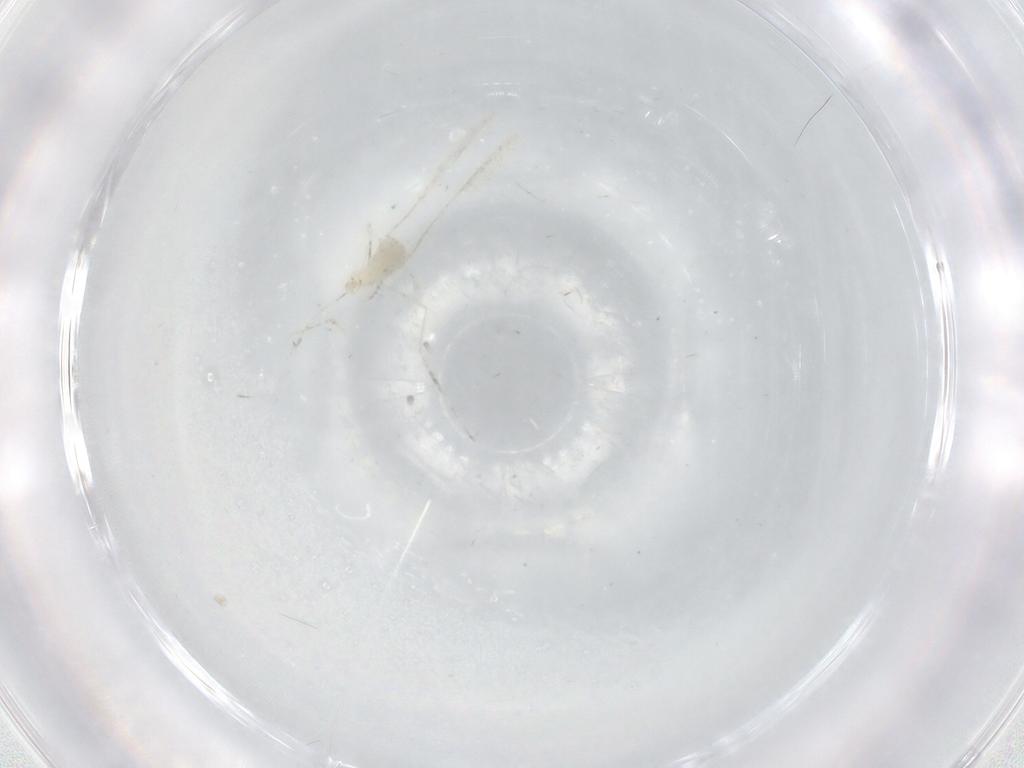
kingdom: Animalia
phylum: Arthropoda
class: Insecta
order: Diptera
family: Cecidomyiidae
